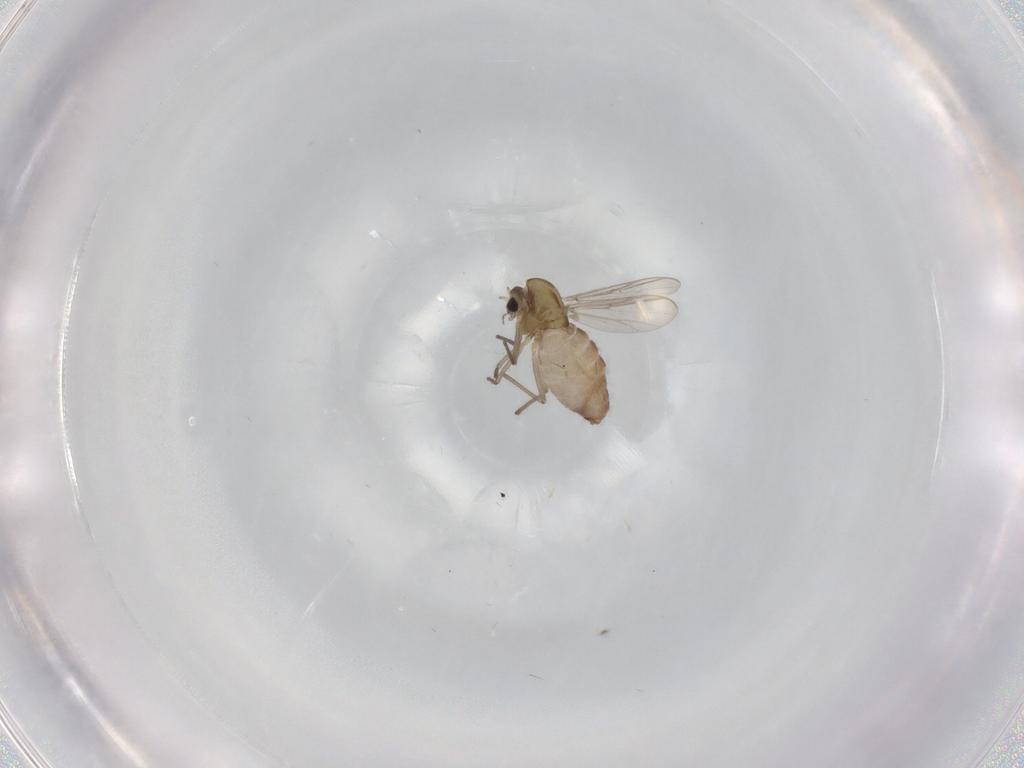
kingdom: Animalia
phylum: Arthropoda
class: Insecta
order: Diptera
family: Chironomidae
